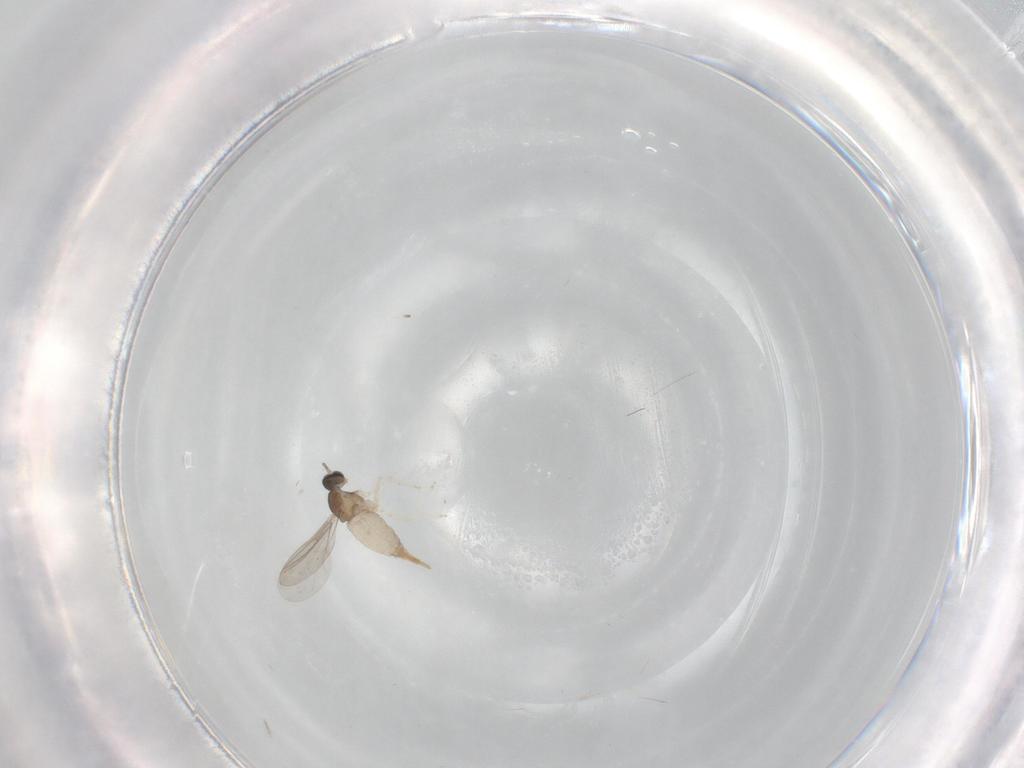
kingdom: Animalia
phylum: Arthropoda
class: Insecta
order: Diptera
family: Cecidomyiidae
